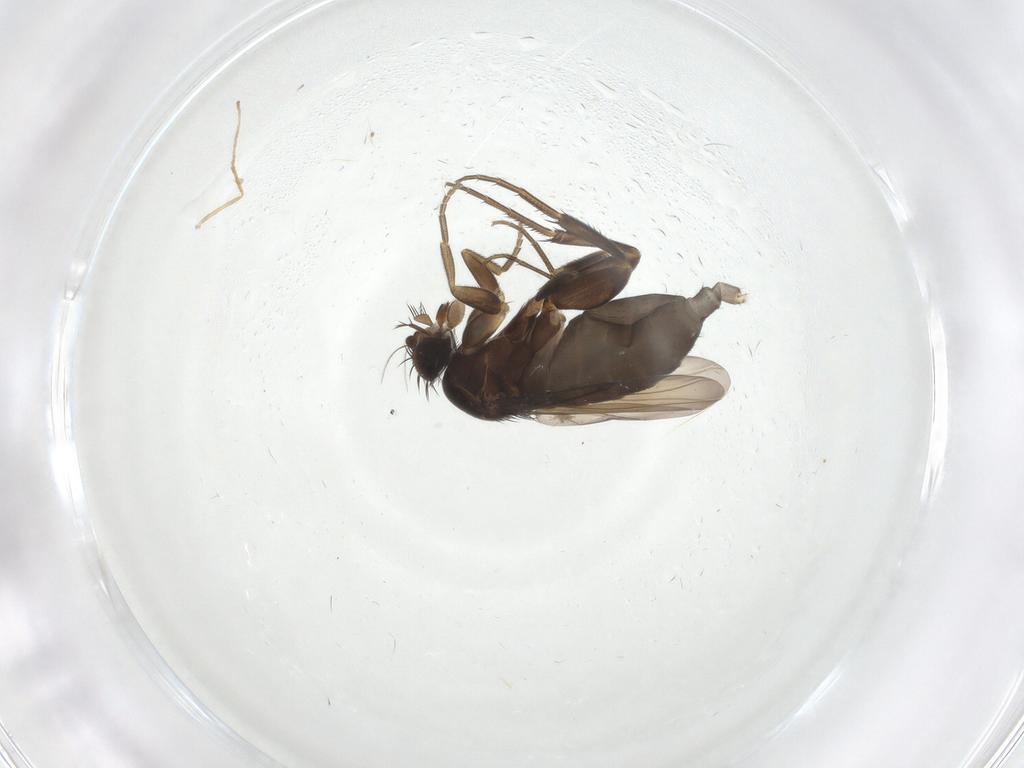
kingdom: Animalia
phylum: Arthropoda
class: Insecta
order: Diptera
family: Phoridae
